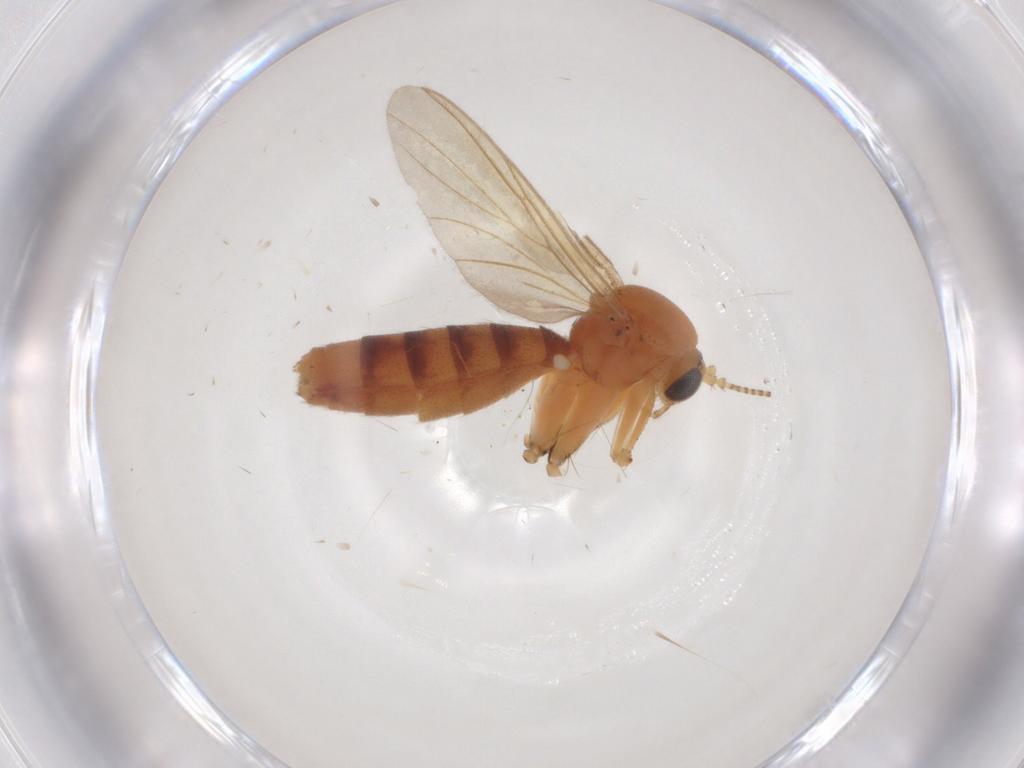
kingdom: Animalia
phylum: Arthropoda
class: Insecta
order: Diptera
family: Mycetophilidae
